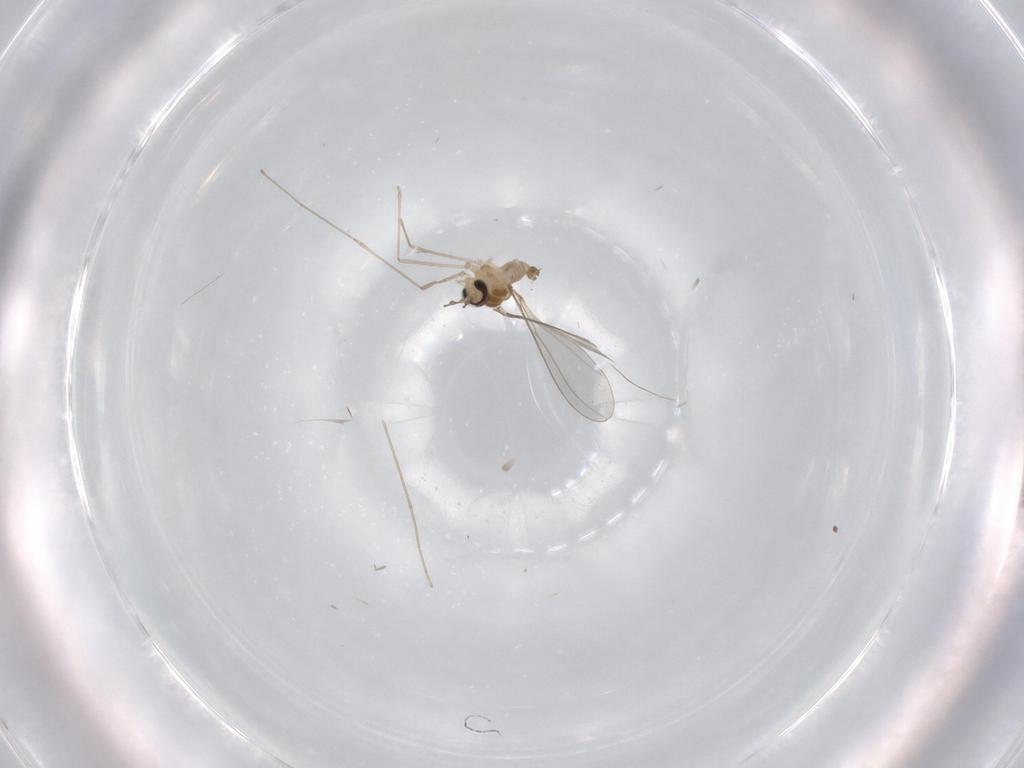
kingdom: Animalia
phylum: Arthropoda
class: Insecta
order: Diptera
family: Cecidomyiidae
